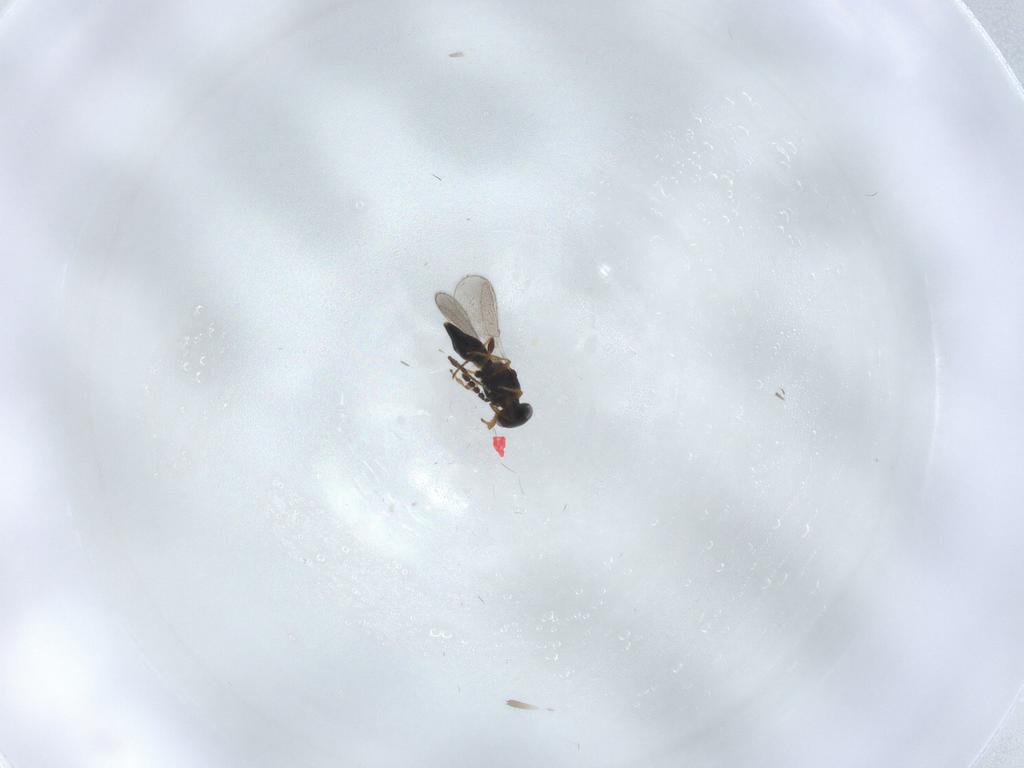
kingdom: Animalia
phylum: Arthropoda
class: Insecta
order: Hymenoptera
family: Platygastridae
